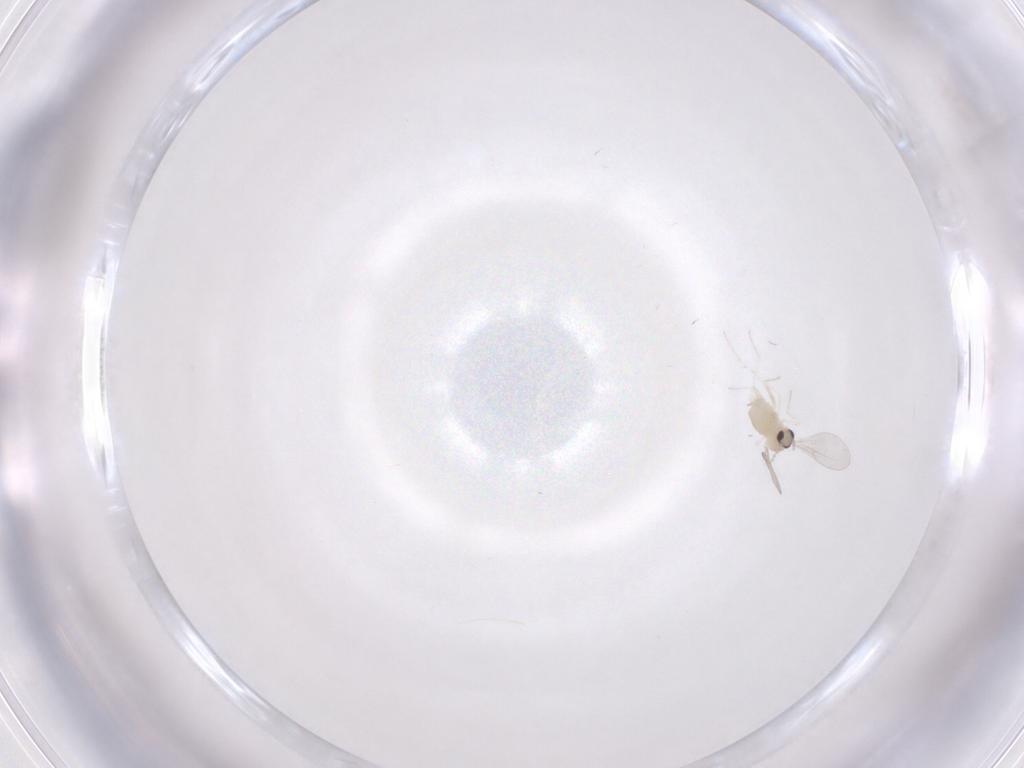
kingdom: Animalia
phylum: Arthropoda
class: Insecta
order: Diptera
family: Cecidomyiidae
